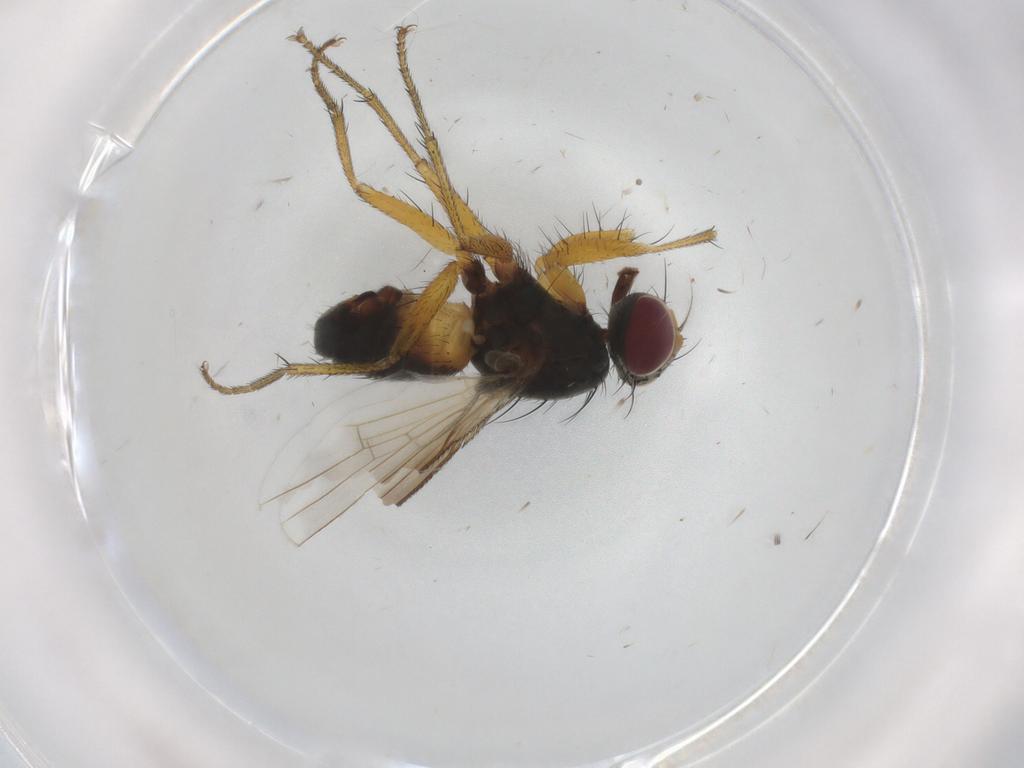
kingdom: Animalia
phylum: Arthropoda
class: Insecta
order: Diptera
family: Muscidae
